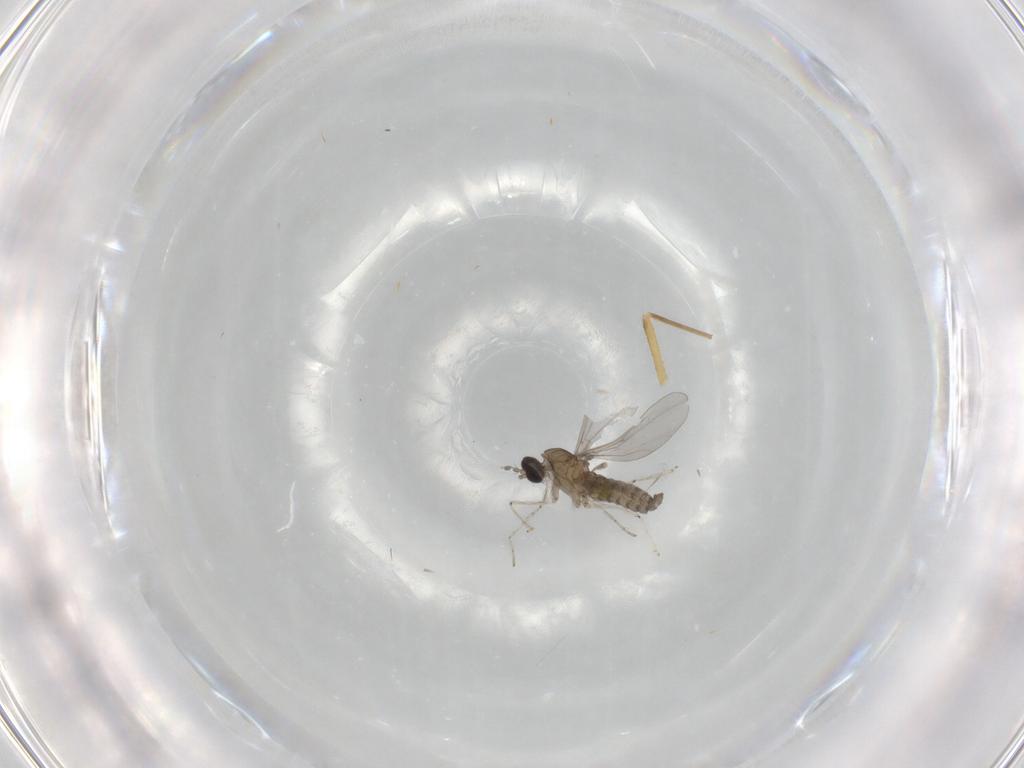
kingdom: Animalia
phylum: Arthropoda
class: Insecta
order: Diptera
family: Cecidomyiidae
